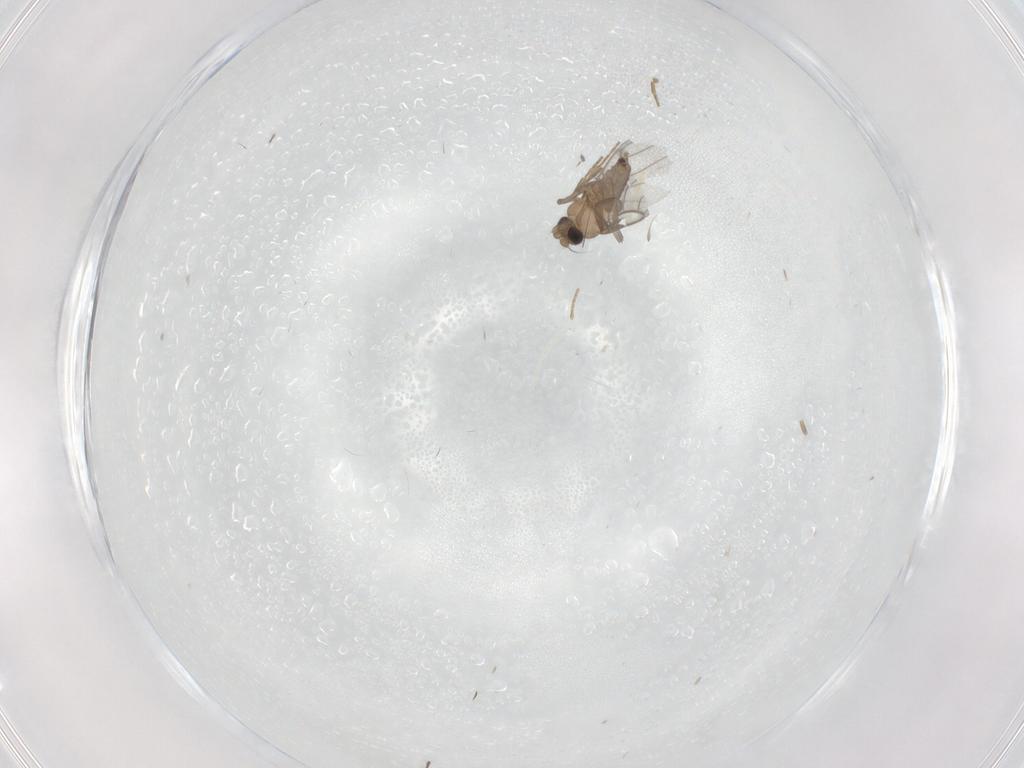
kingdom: Animalia
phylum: Arthropoda
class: Insecta
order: Diptera
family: Ceratopogonidae
